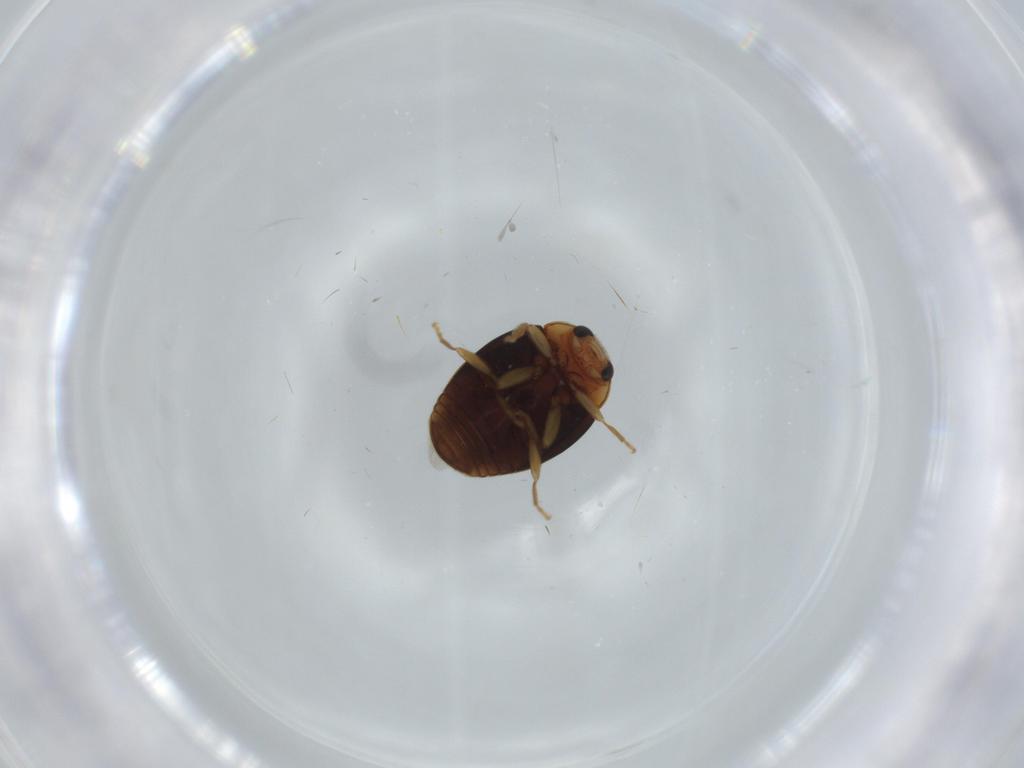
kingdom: Animalia
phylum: Arthropoda
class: Insecta
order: Coleoptera
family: Coccinellidae
